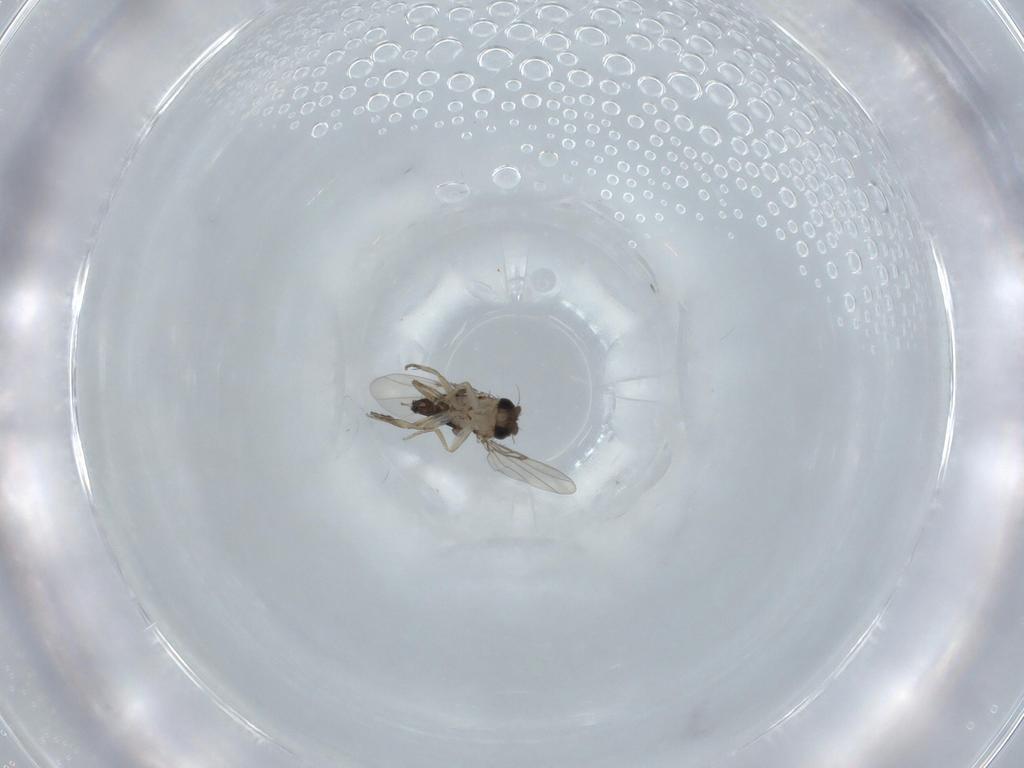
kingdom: Animalia
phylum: Arthropoda
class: Insecta
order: Diptera
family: Phoridae
